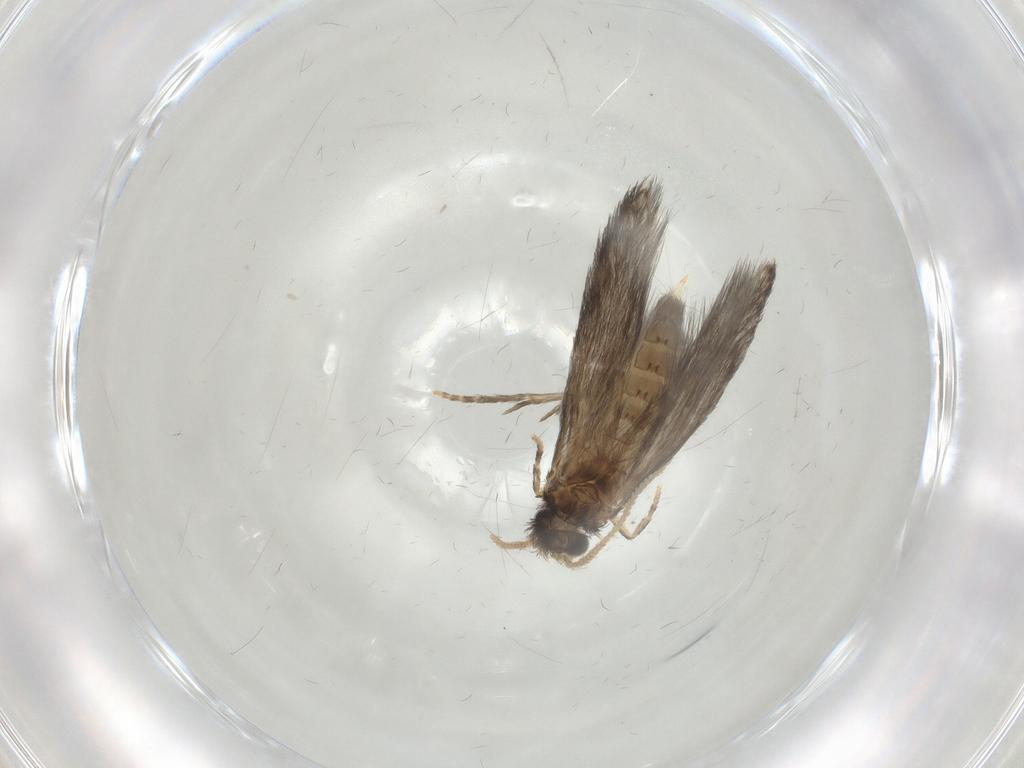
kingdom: Animalia
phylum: Arthropoda
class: Insecta
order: Trichoptera
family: Hydroptilidae
